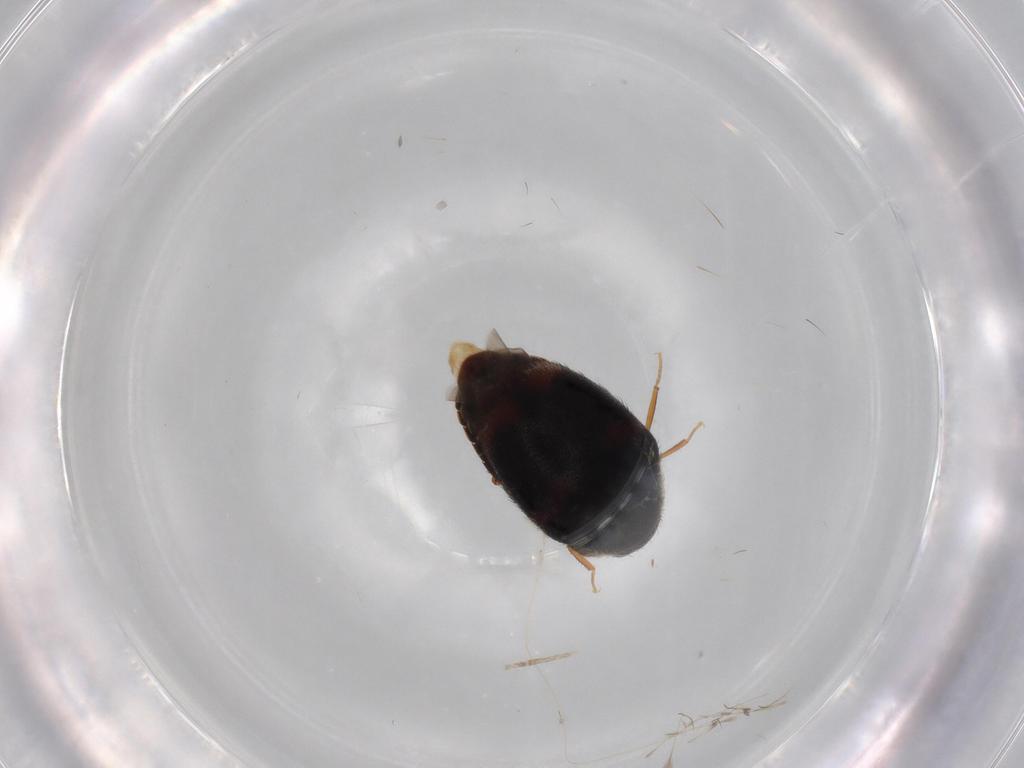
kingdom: Animalia
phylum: Arthropoda
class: Insecta
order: Coleoptera
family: Dermestidae
